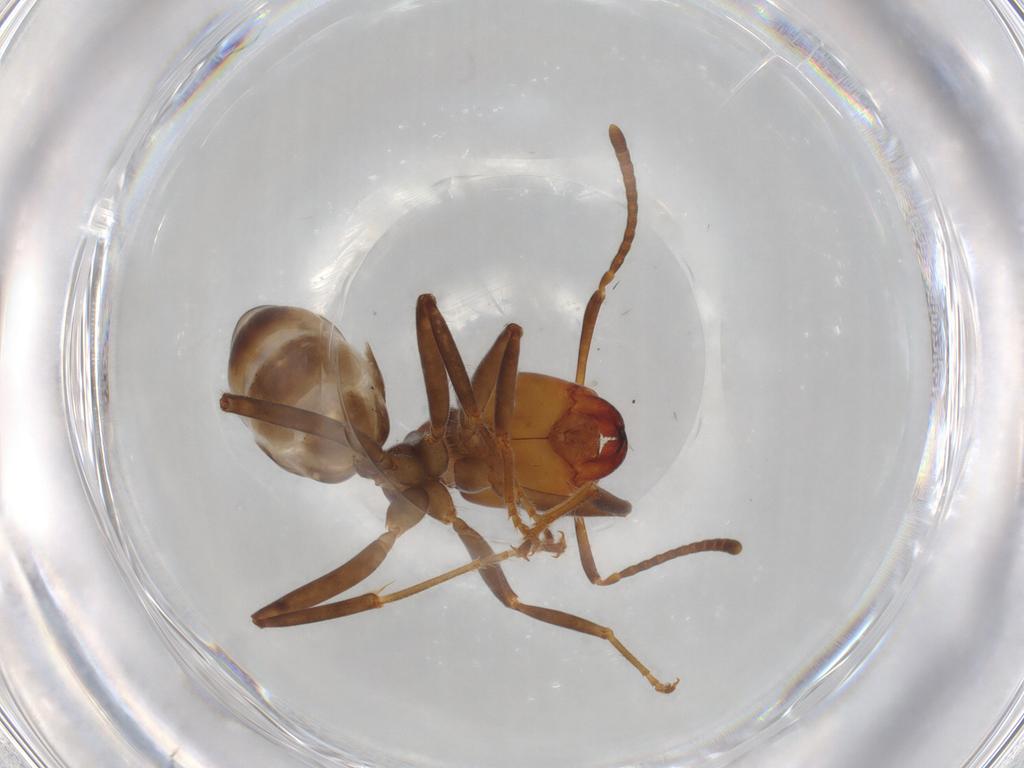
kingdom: Animalia
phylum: Arthropoda
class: Insecta
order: Hymenoptera
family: Formicidae
